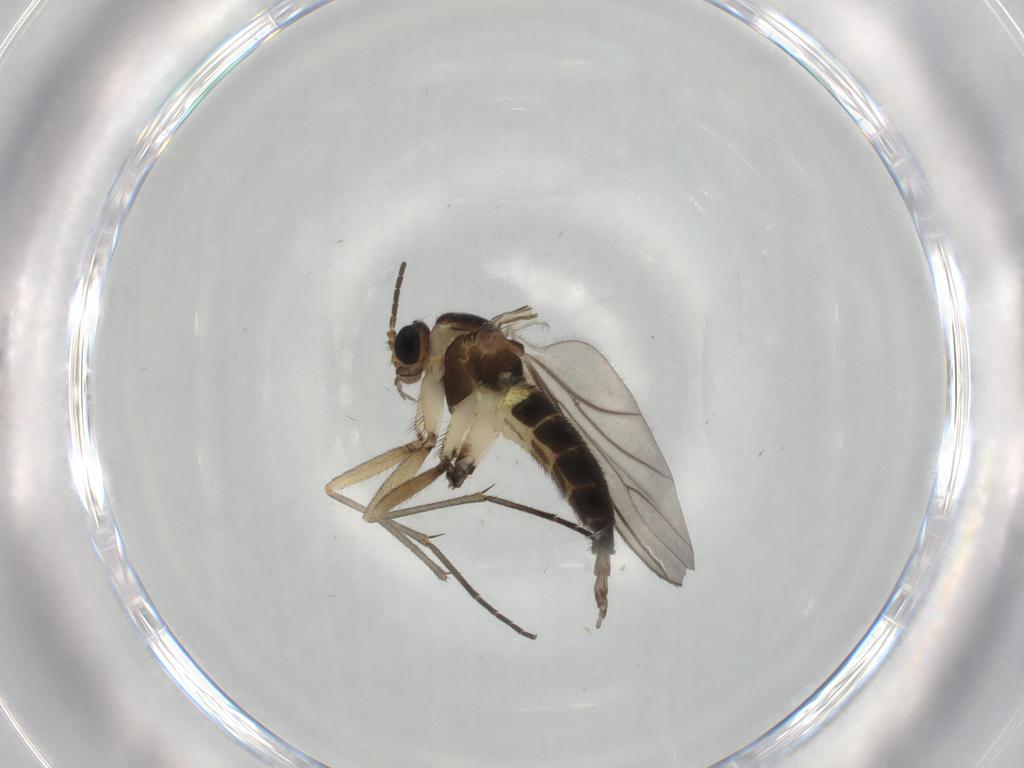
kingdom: Animalia
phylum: Arthropoda
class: Insecta
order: Diptera
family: Sciaridae
